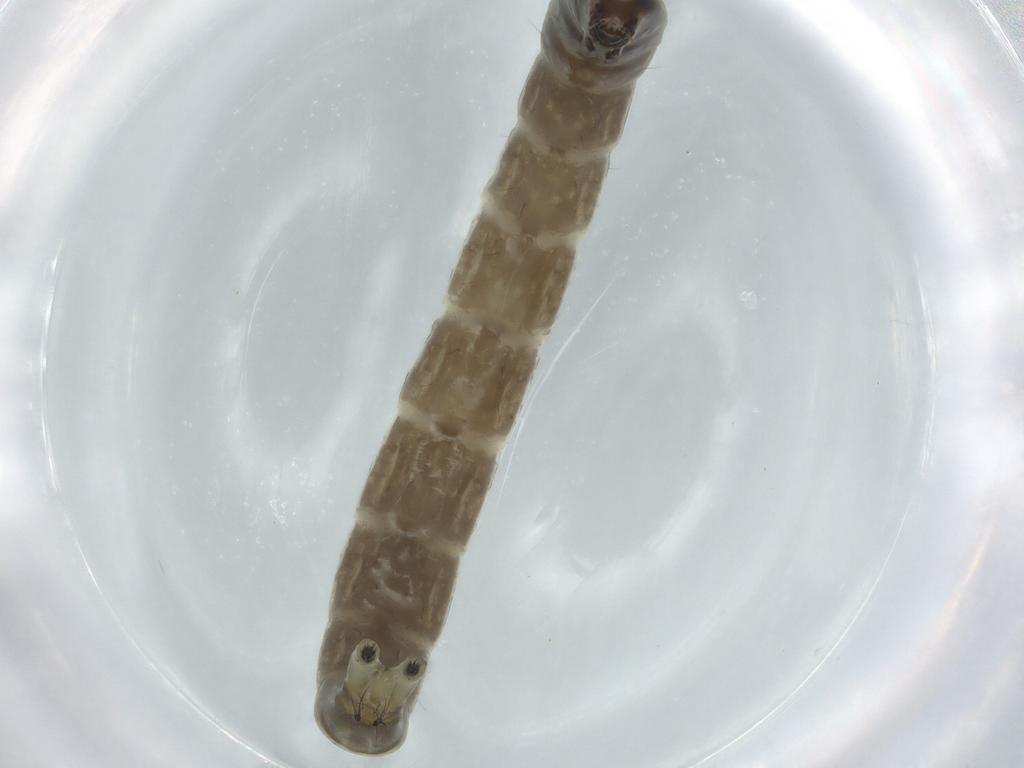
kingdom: Animalia
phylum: Arthropoda
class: Insecta
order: Diptera
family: Chironomidae
